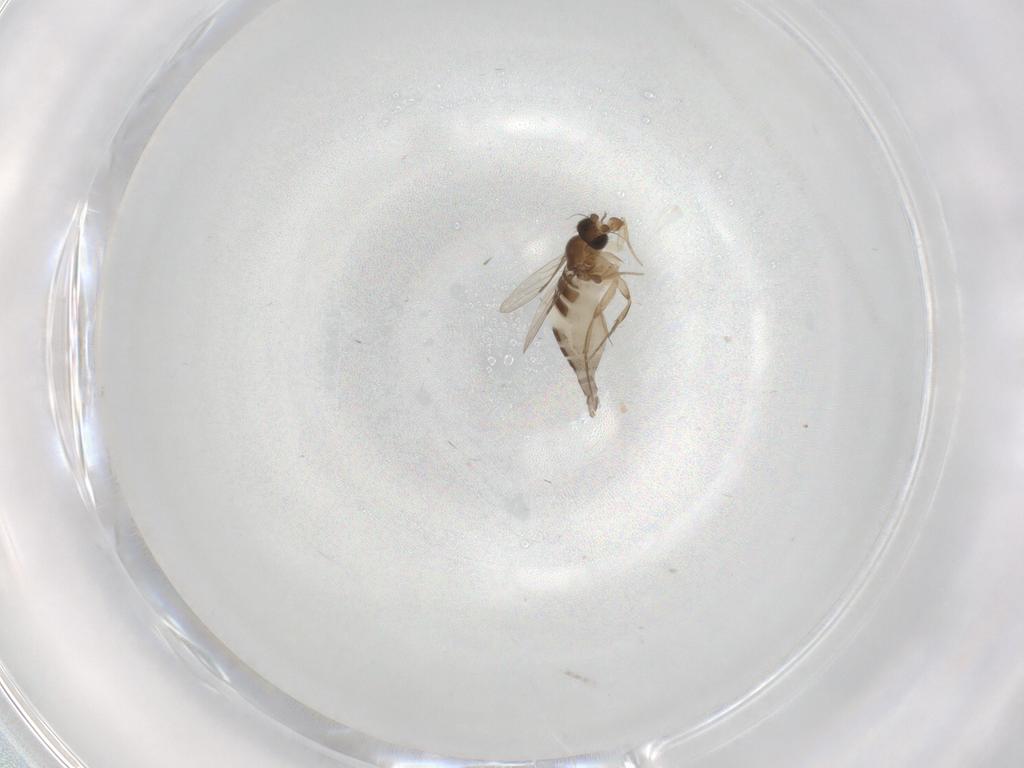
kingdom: Animalia
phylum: Arthropoda
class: Insecta
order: Diptera
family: Phoridae
